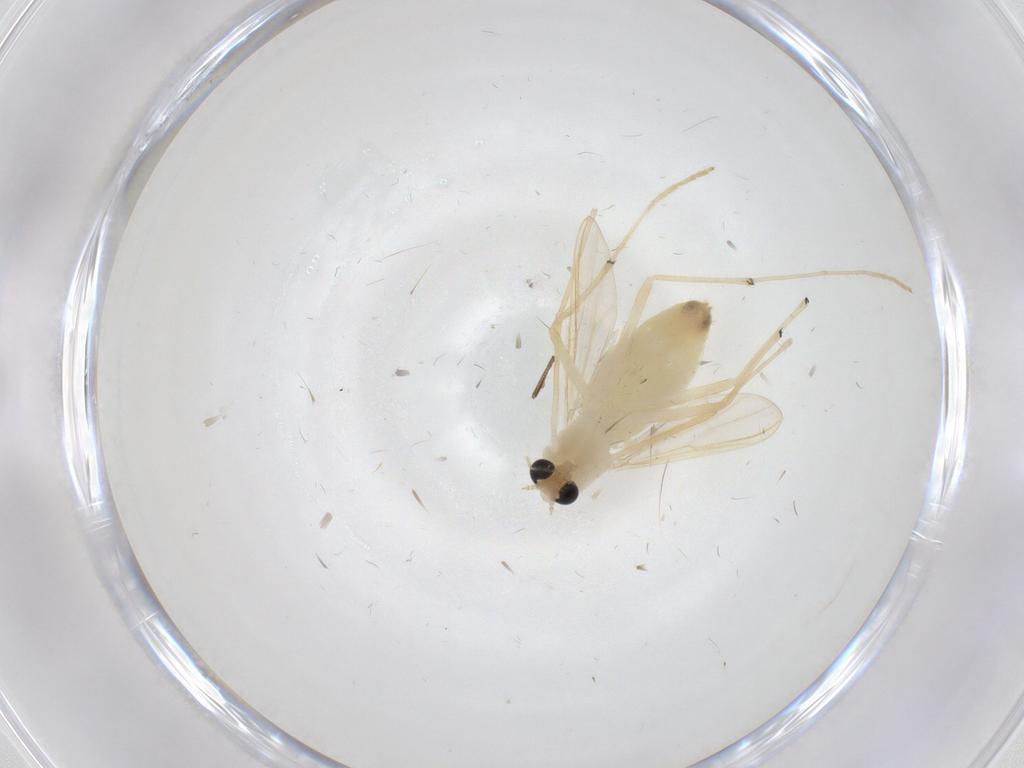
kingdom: Animalia
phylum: Arthropoda
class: Insecta
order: Diptera
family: Chironomidae
